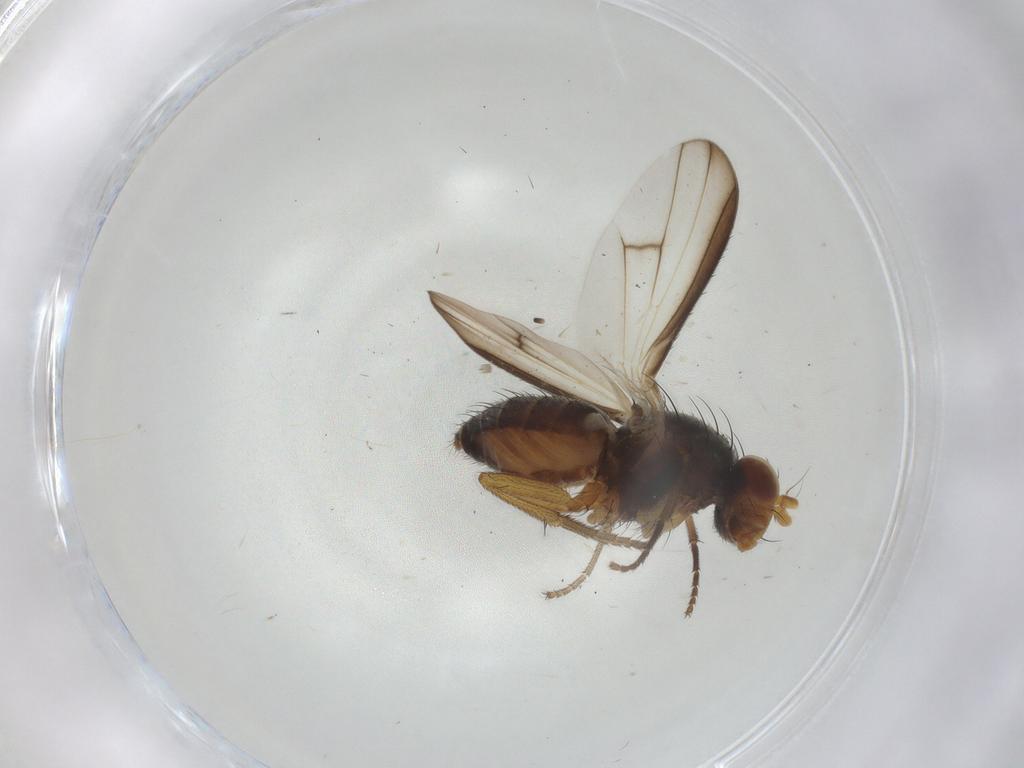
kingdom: Animalia
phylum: Arthropoda
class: Insecta
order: Diptera
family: Heleomyzidae
